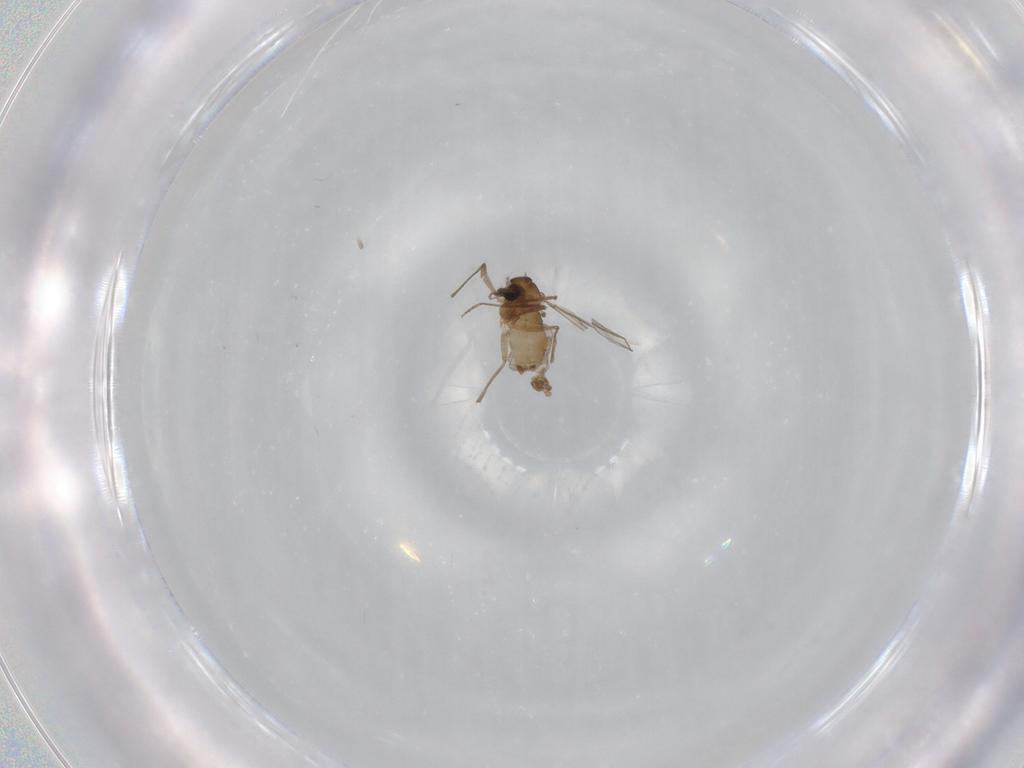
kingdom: Animalia
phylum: Arthropoda
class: Insecta
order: Diptera
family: Chironomidae
